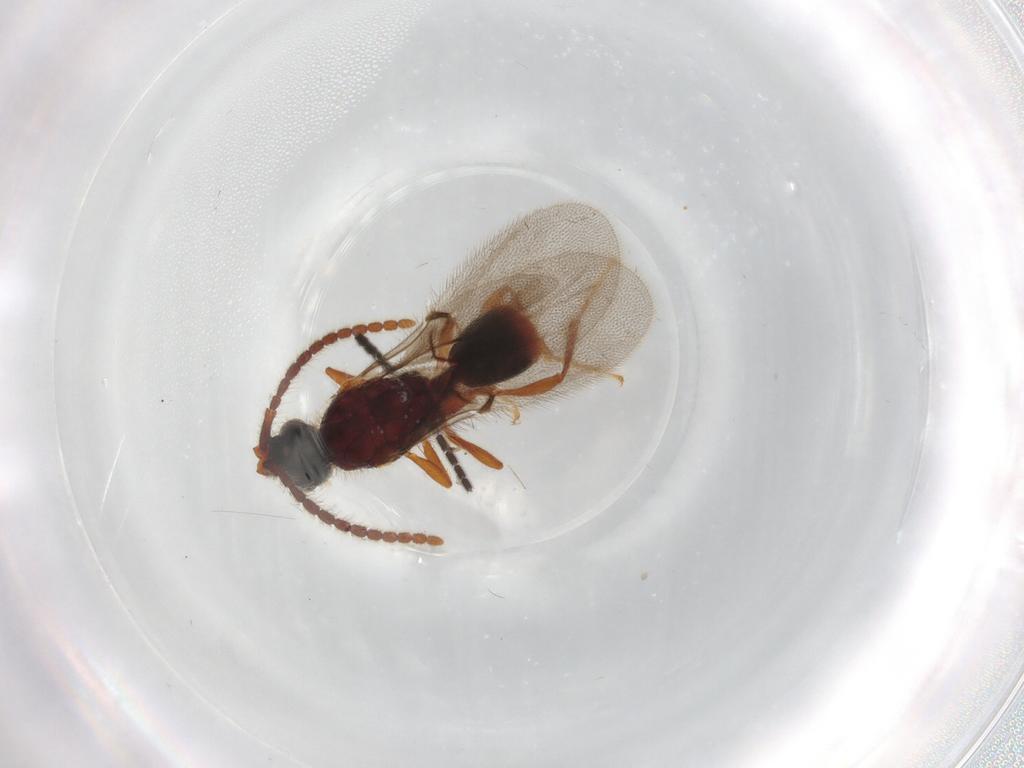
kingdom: Animalia
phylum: Arthropoda
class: Insecta
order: Hymenoptera
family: Diapriidae
